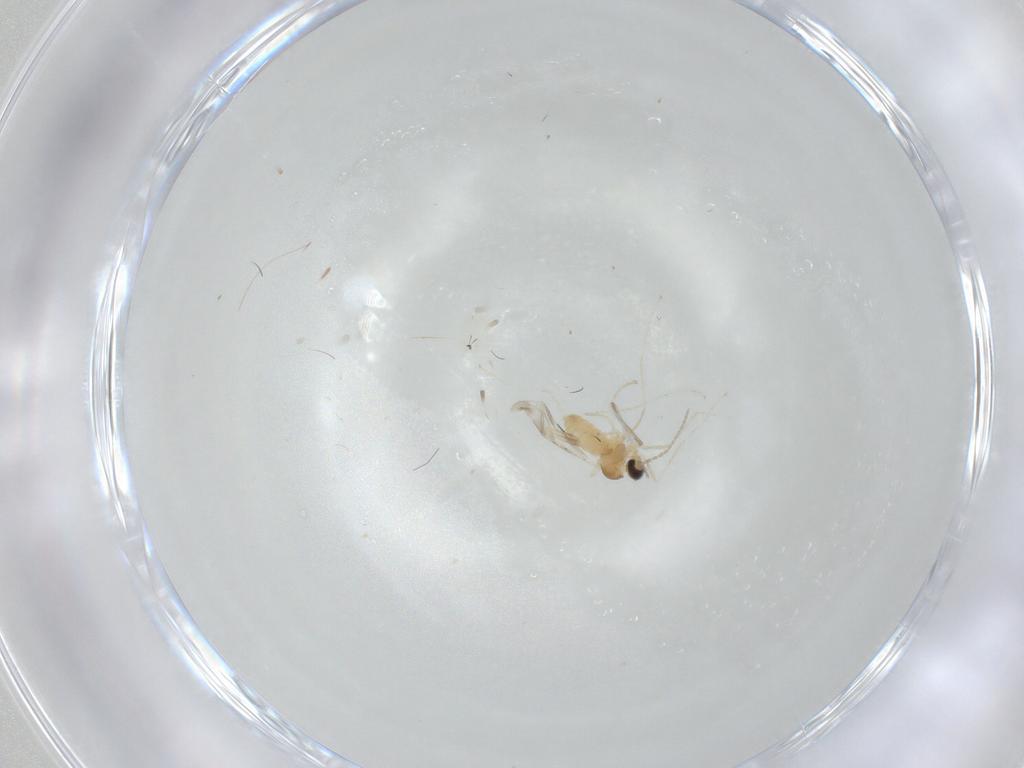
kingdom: Animalia
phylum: Arthropoda
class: Insecta
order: Diptera
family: Cecidomyiidae
